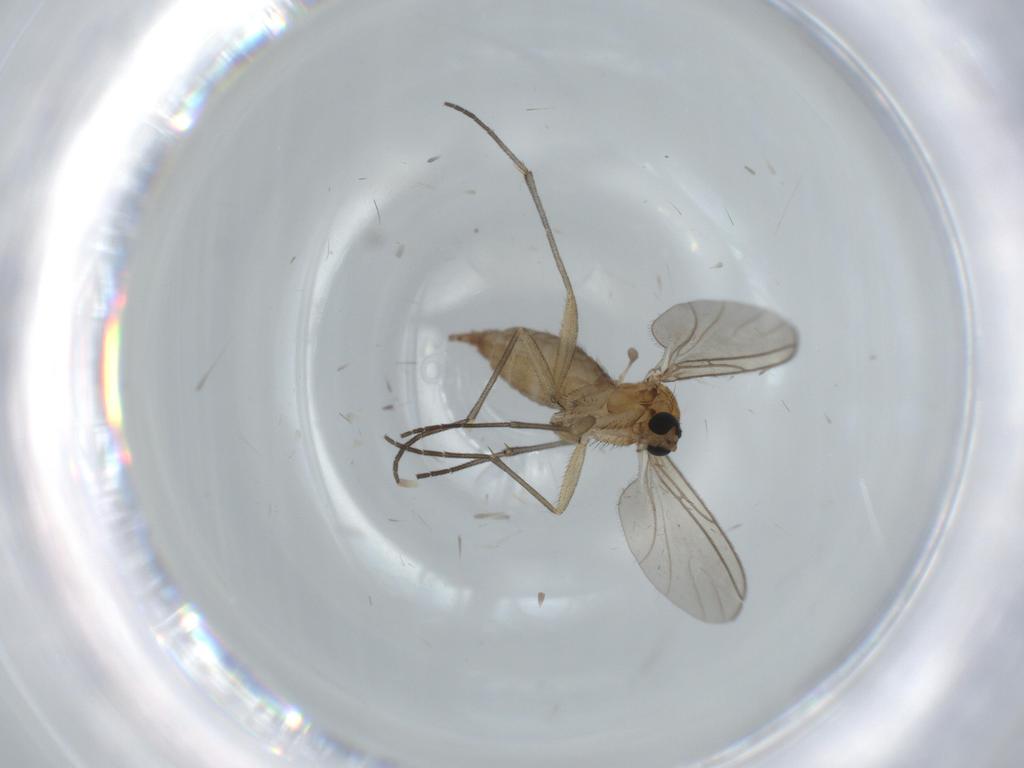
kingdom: Animalia
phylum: Arthropoda
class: Insecta
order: Diptera
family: Sciaridae
